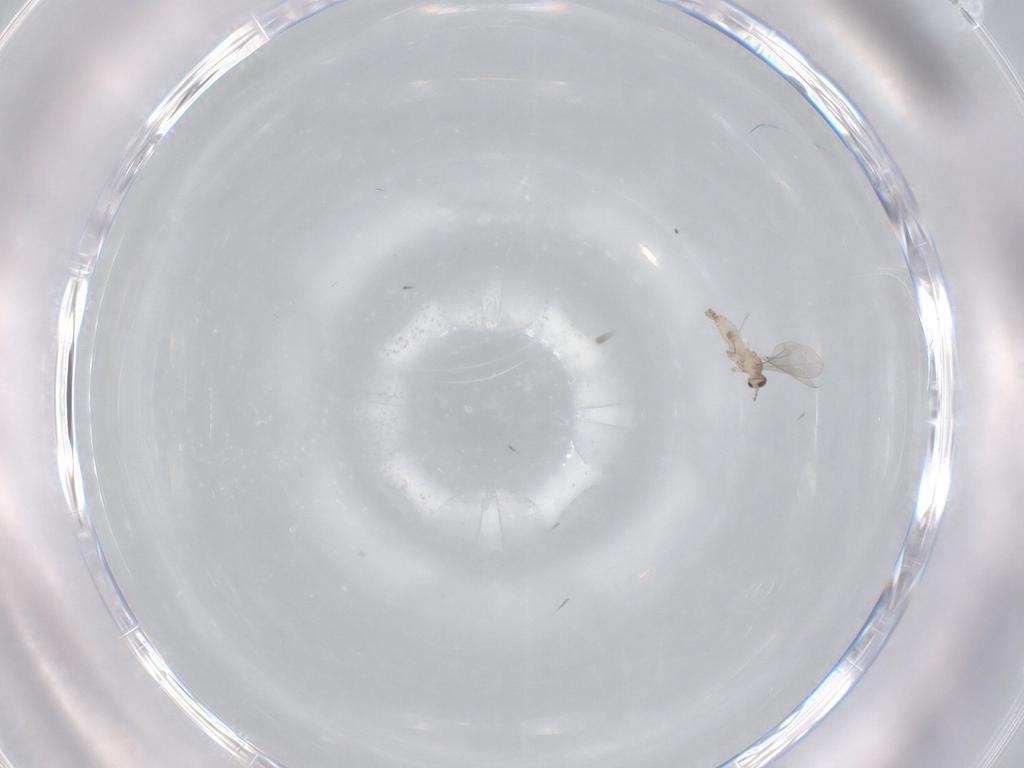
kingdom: Animalia
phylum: Arthropoda
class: Insecta
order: Diptera
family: Cecidomyiidae
